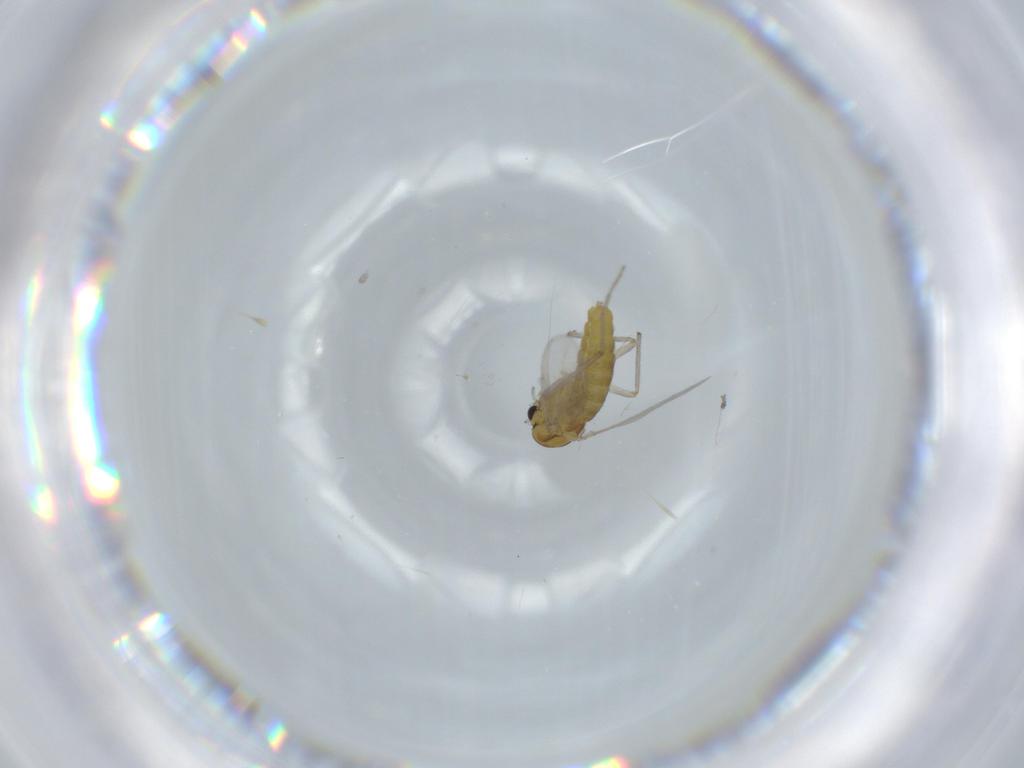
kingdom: Animalia
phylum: Arthropoda
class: Insecta
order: Diptera
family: Chironomidae
